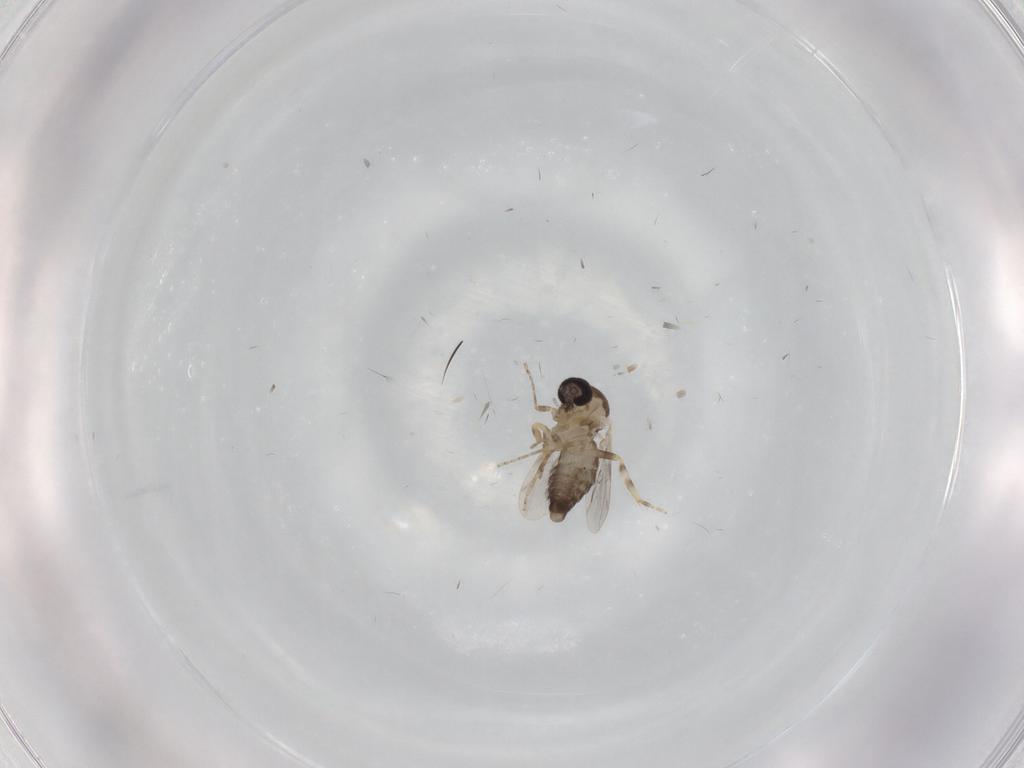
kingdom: Animalia
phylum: Arthropoda
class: Insecta
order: Diptera
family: Ceratopogonidae
